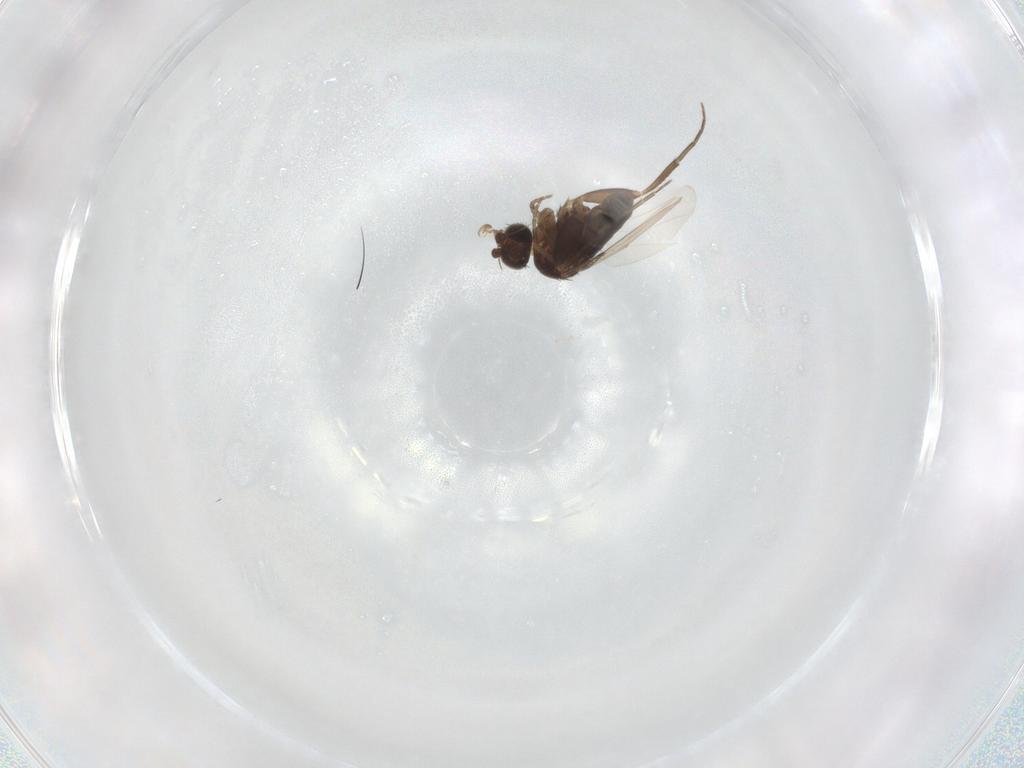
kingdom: Animalia
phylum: Arthropoda
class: Insecta
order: Diptera
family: Phoridae
